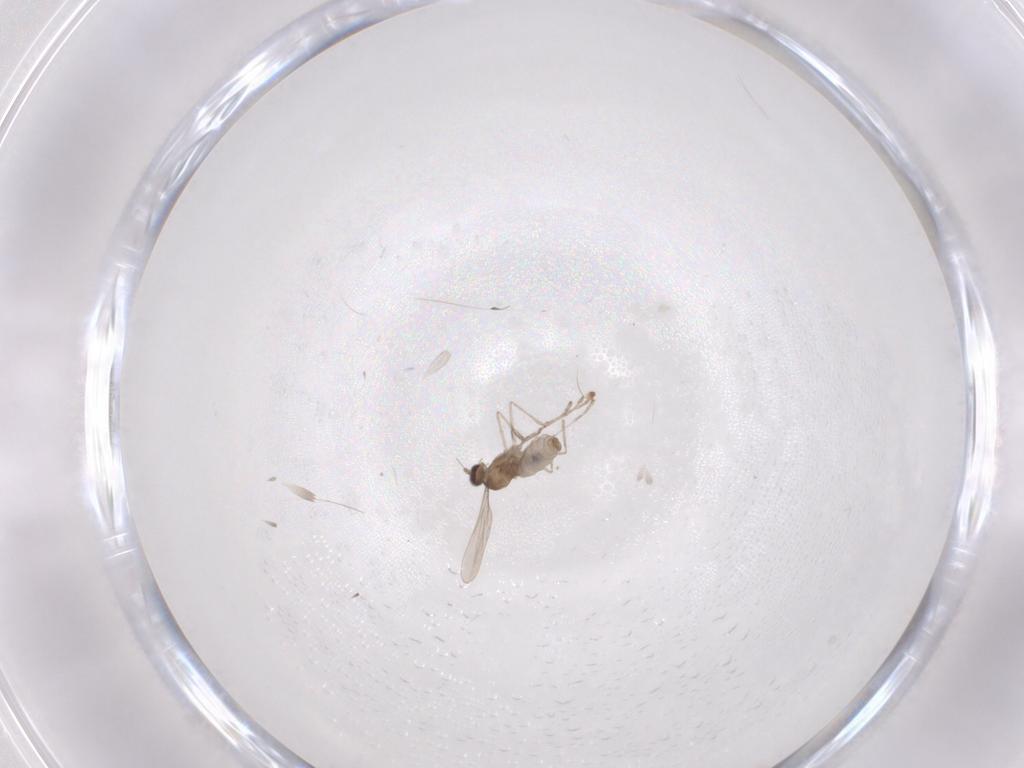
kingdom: Animalia
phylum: Arthropoda
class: Insecta
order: Diptera
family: Cecidomyiidae
